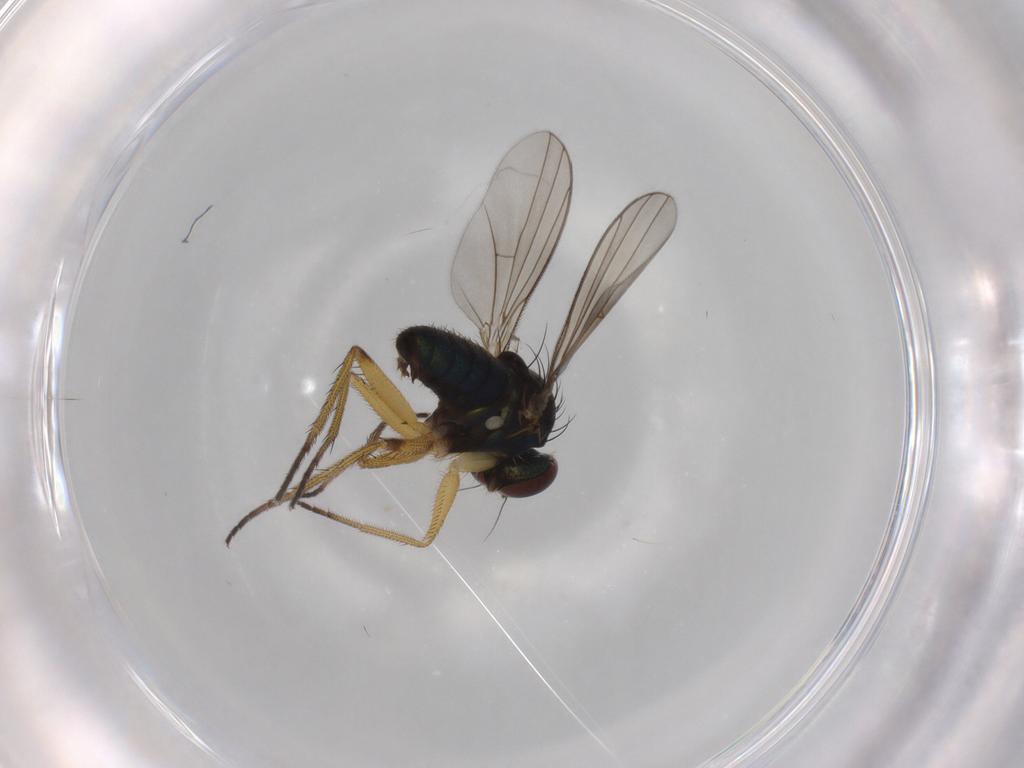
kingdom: Animalia
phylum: Arthropoda
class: Insecta
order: Diptera
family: Dolichopodidae
